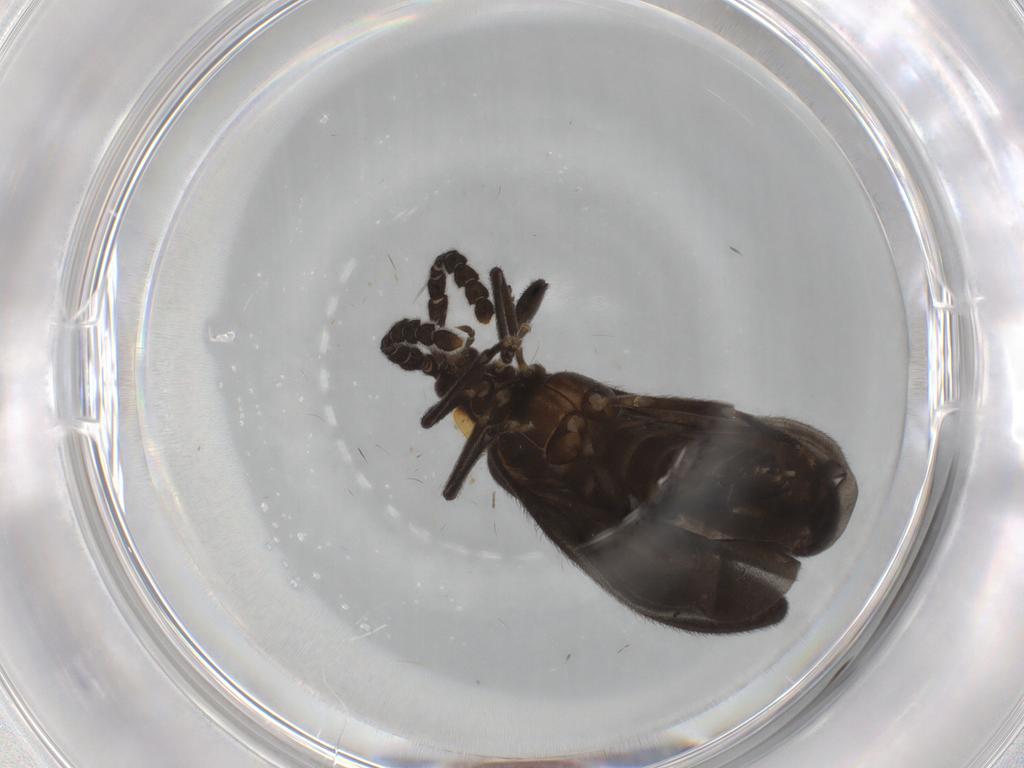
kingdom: Animalia
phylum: Arthropoda
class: Insecta
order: Coleoptera
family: Lycidae
